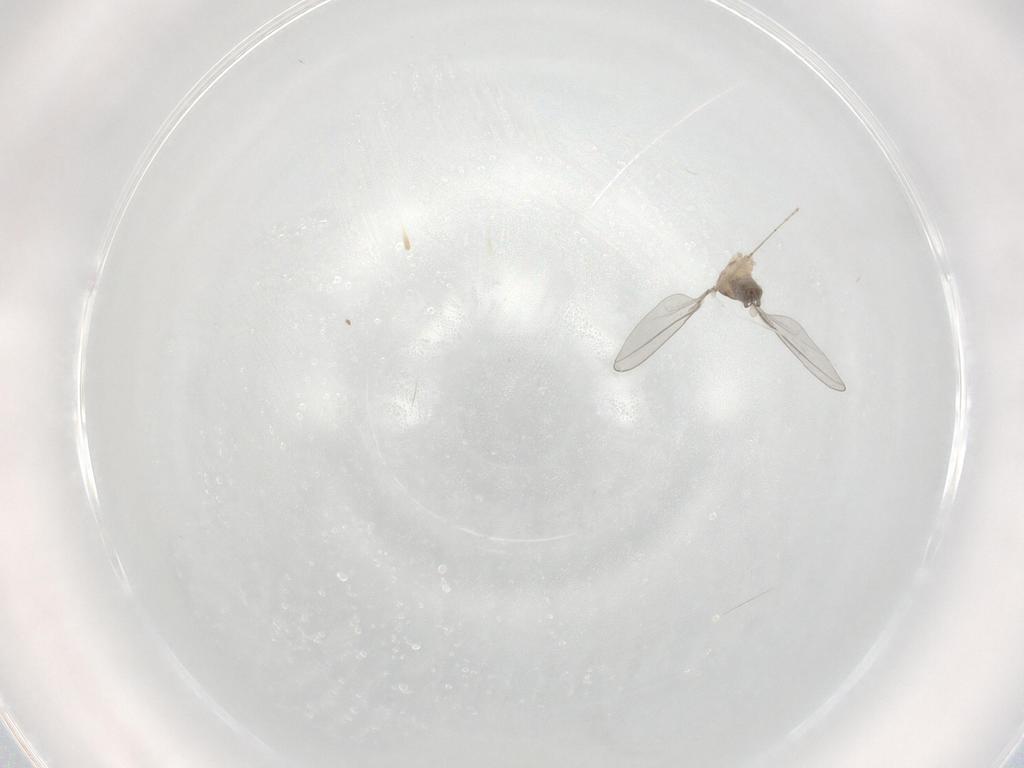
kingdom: Animalia
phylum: Arthropoda
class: Insecta
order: Diptera
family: Cecidomyiidae
